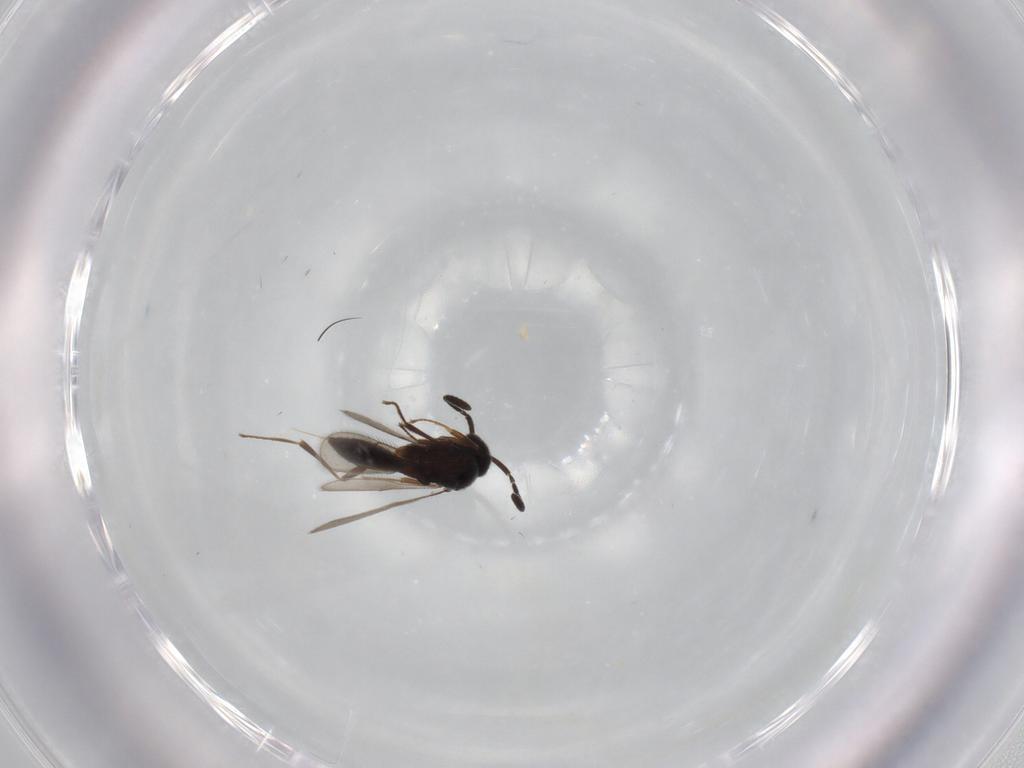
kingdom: Animalia
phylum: Arthropoda
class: Insecta
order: Hymenoptera
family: Scelionidae
